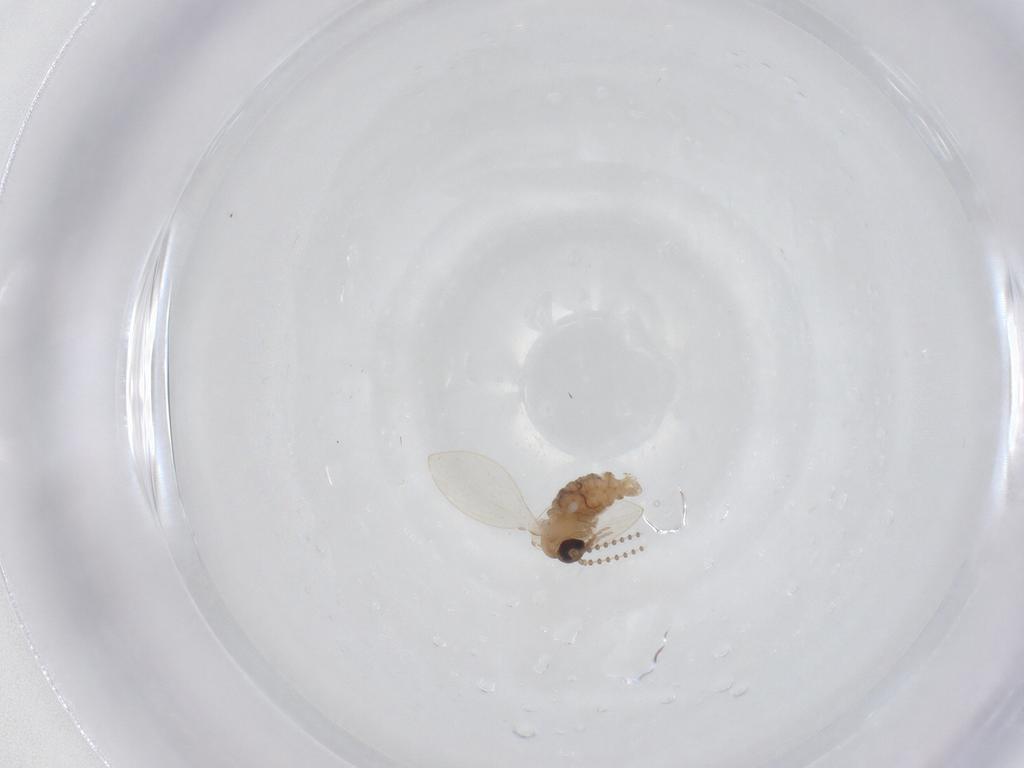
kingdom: Animalia
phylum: Arthropoda
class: Insecta
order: Diptera
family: Psychodidae
